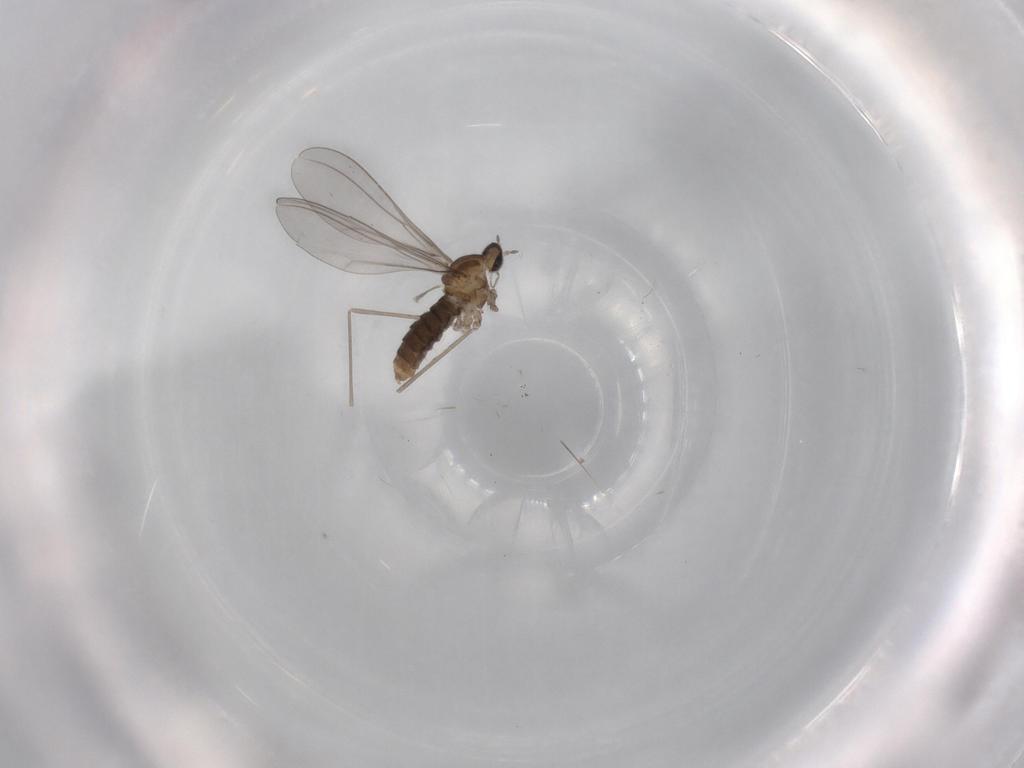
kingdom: Animalia
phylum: Arthropoda
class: Insecta
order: Diptera
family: Cecidomyiidae
